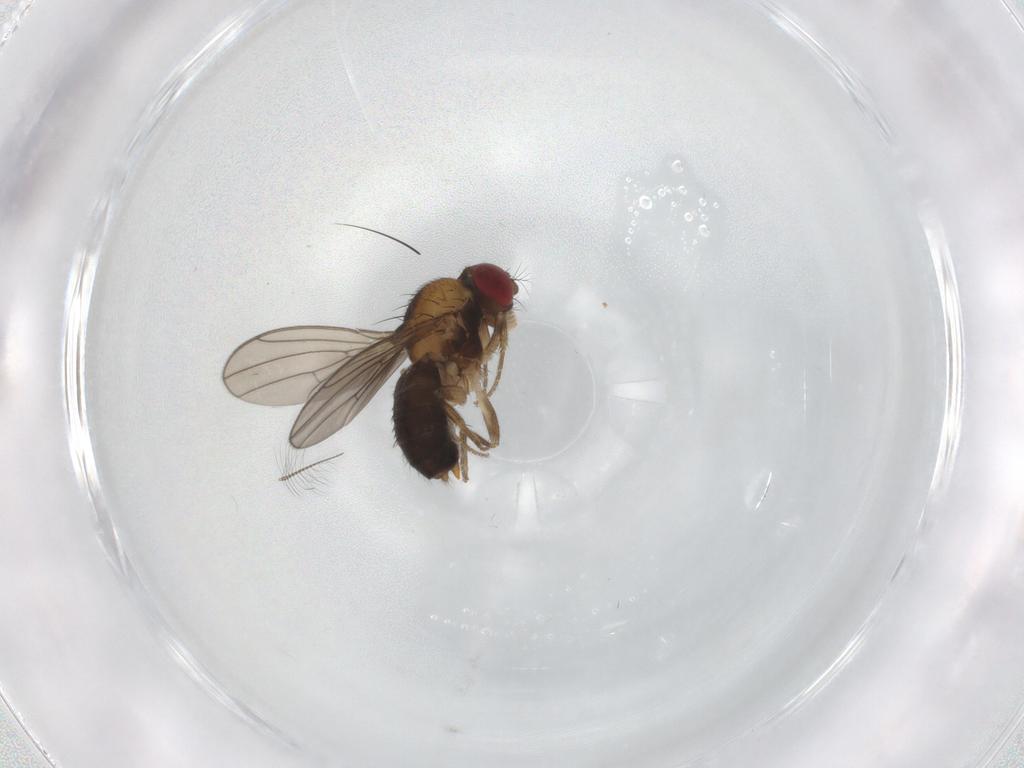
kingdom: Animalia
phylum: Arthropoda
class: Insecta
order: Diptera
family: Drosophilidae
